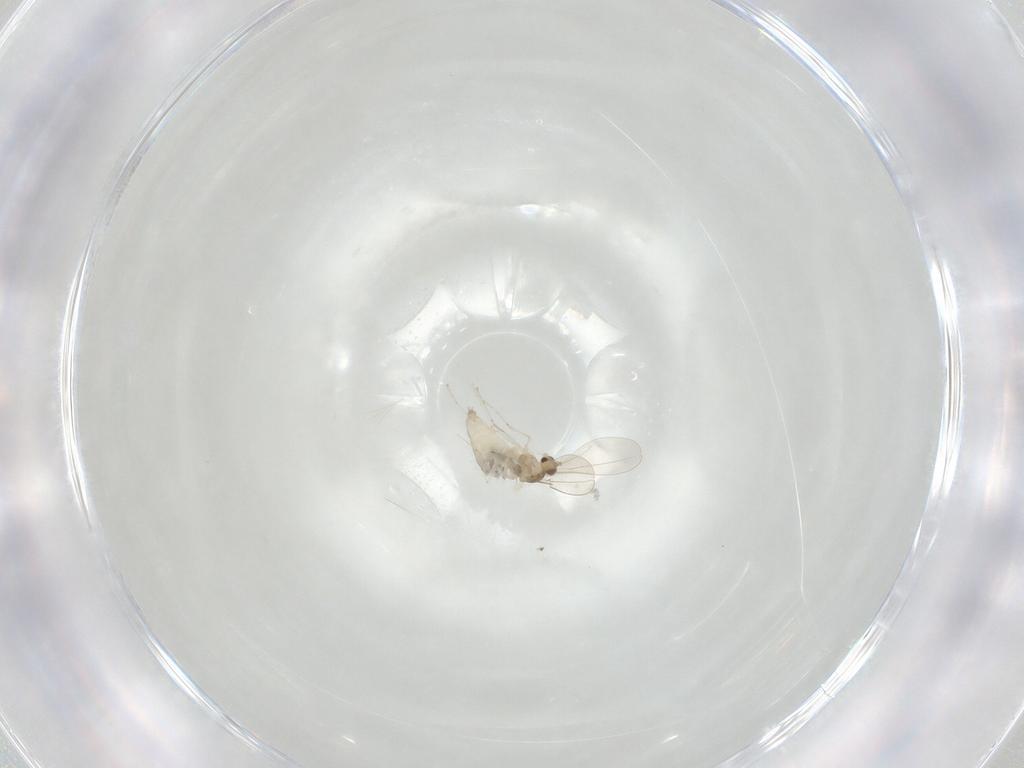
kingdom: Animalia
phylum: Arthropoda
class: Insecta
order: Diptera
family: Cecidomyiidae
